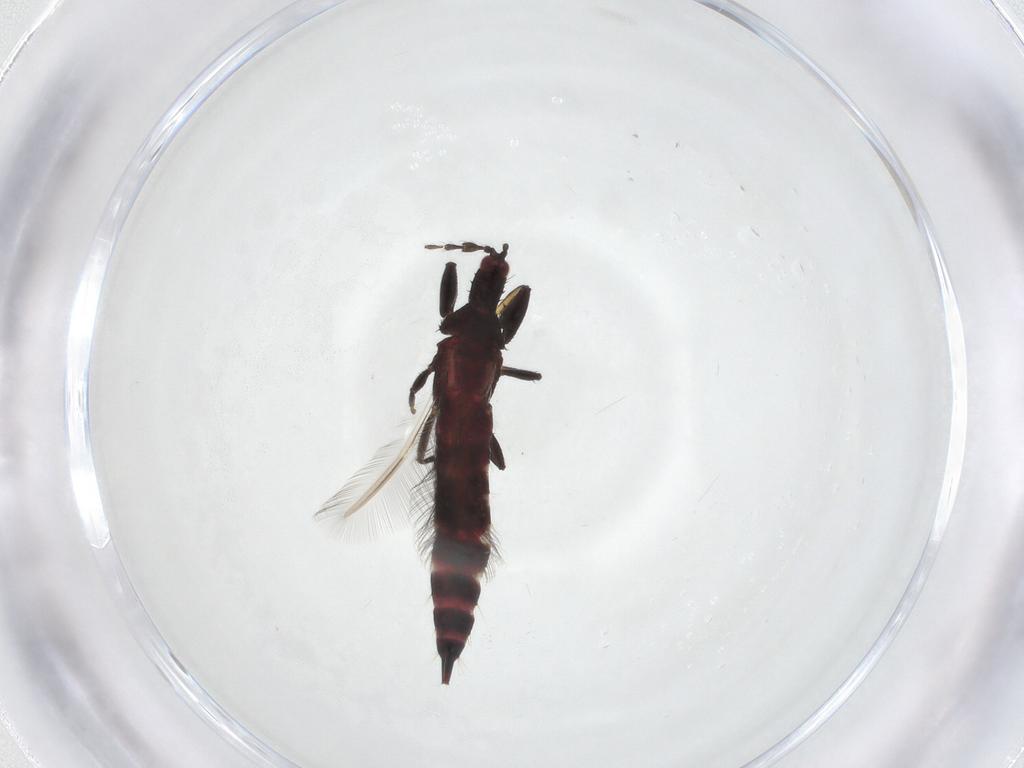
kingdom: Animalia
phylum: Arthropoda
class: Insecta
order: Thysanoptera
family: Phlaeothripidae
